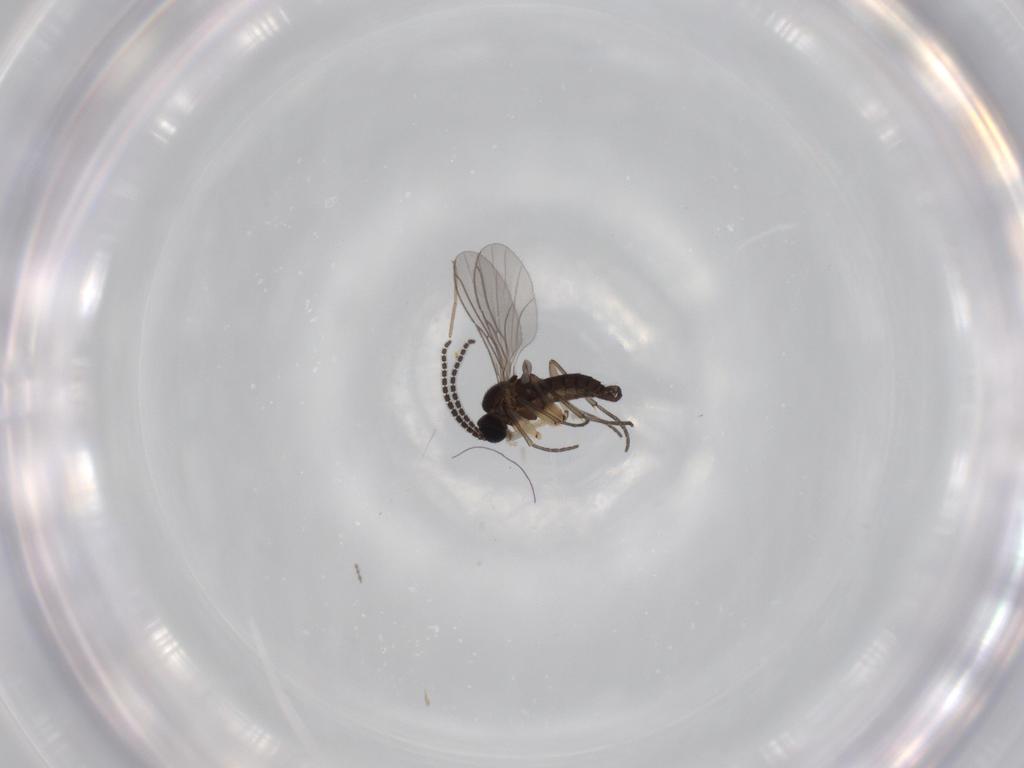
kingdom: Animalia
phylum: Arthropoda
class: Insecta
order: Diptera
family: Sciaridae
